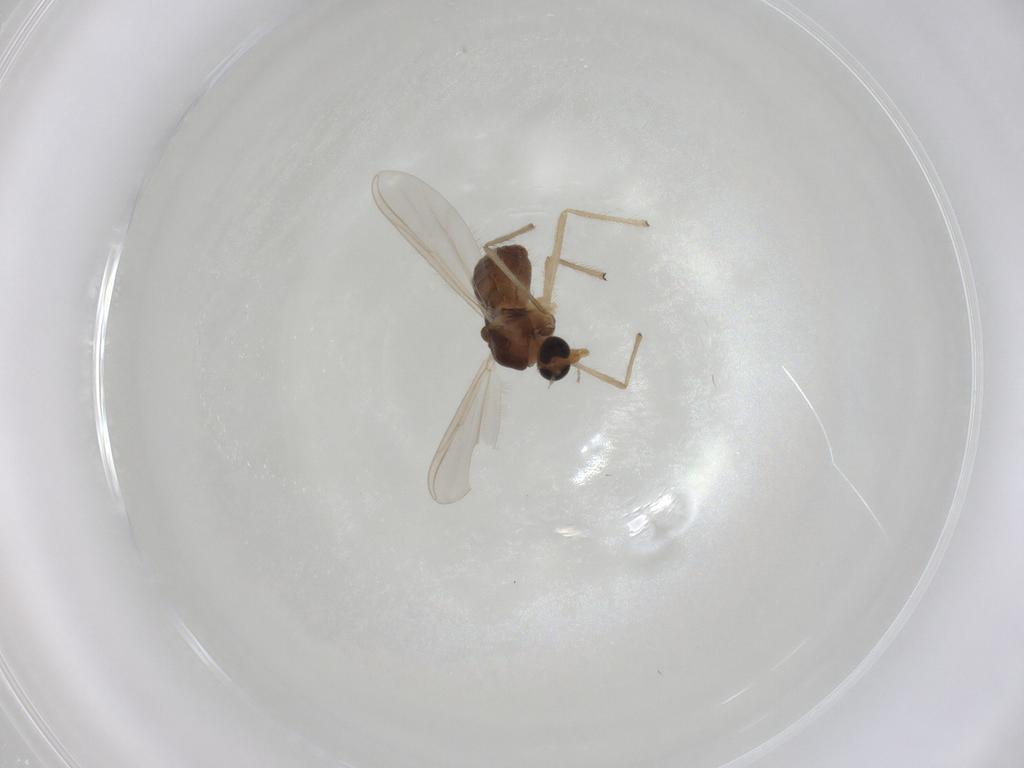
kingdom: Animalia
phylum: Arthropoda
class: Insecta
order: Diptera
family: Chironomidae
